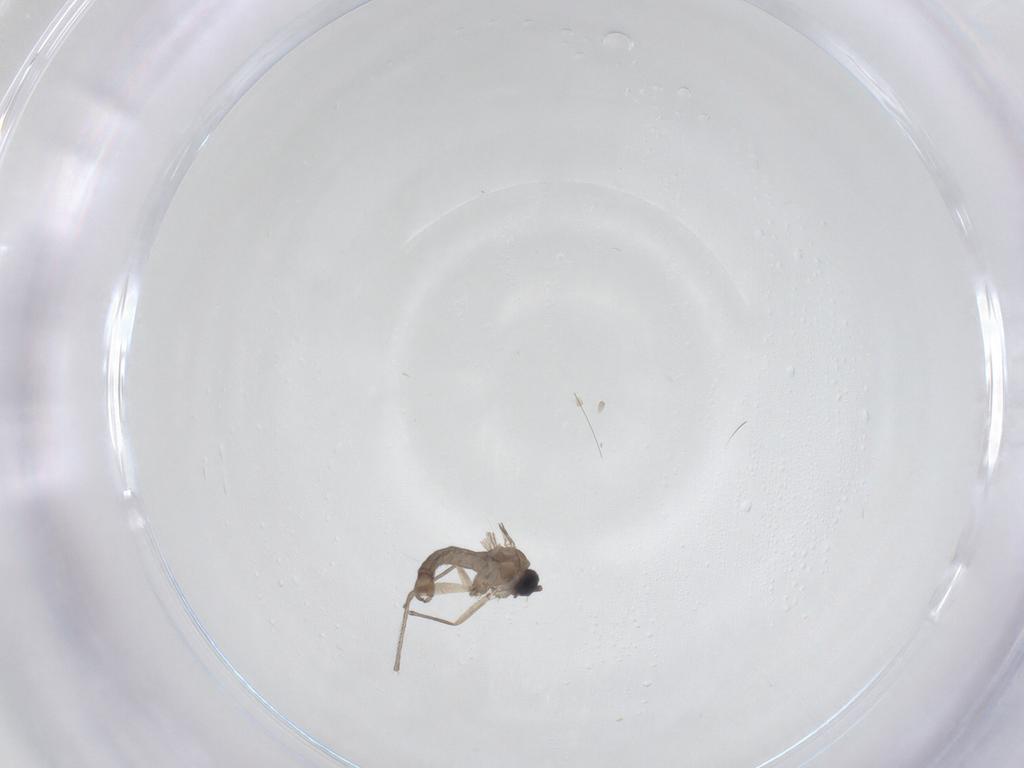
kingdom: Animalia
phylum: Arthropoda
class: Insecta
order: Diptera
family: Sciaridae
